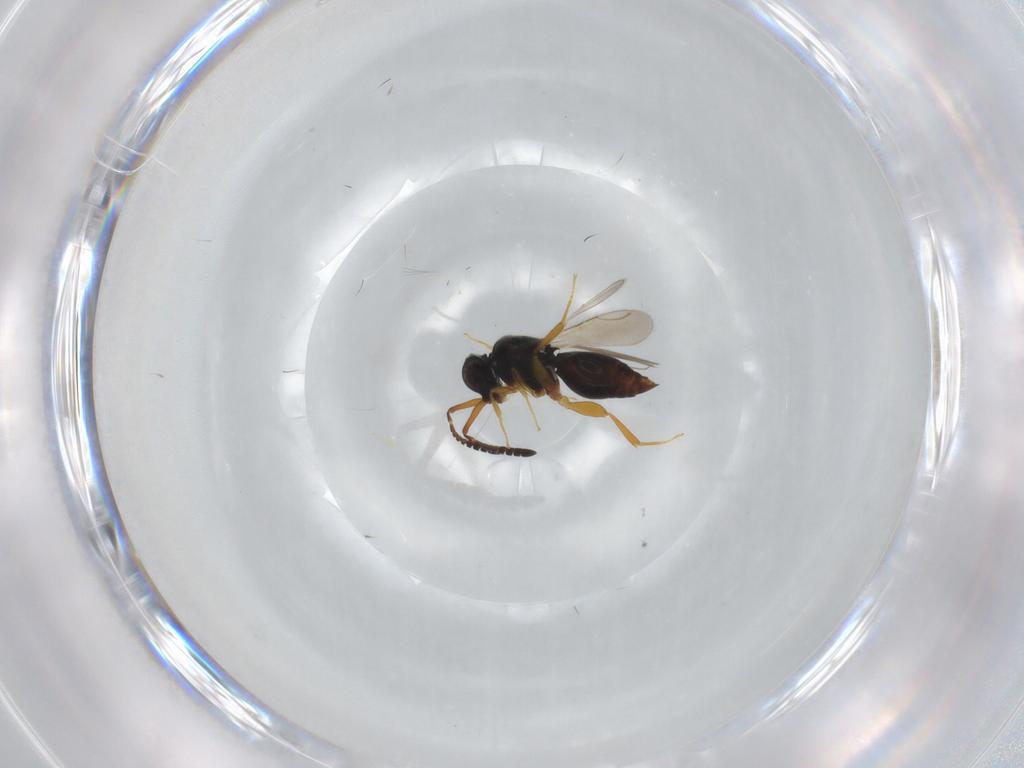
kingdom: Animalia
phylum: Arthropoda
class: Insecta
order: Hymenoptera
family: Ceraphronidae
